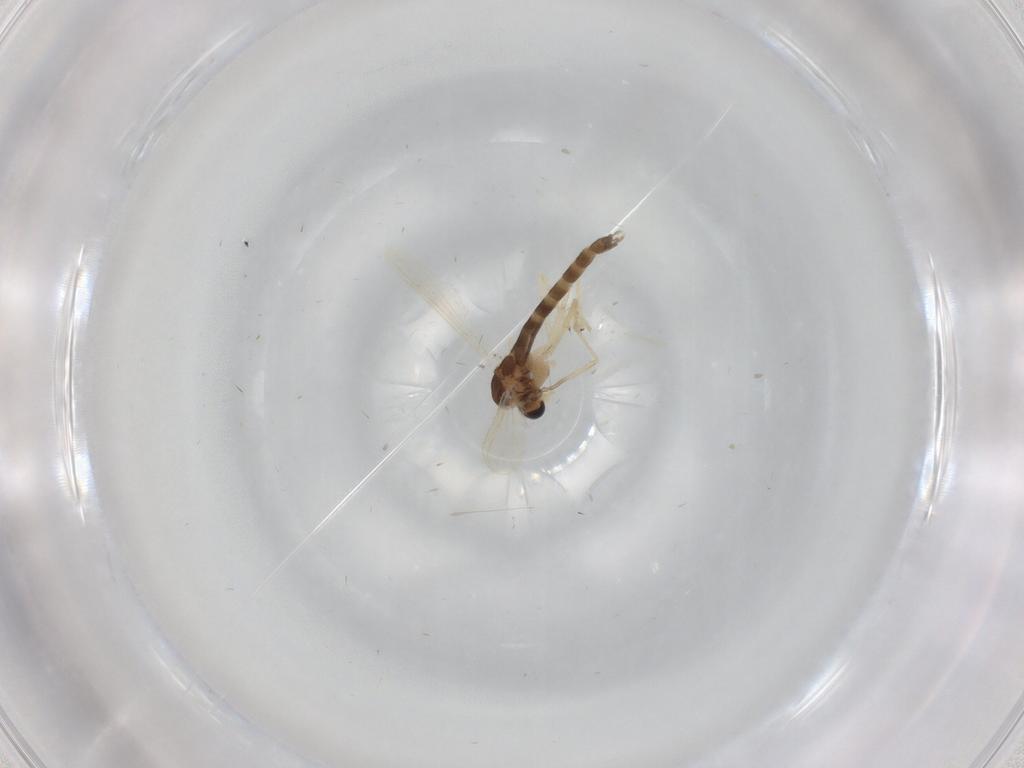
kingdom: Animalia
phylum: Arthropoda
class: Insecta
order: Diptera
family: Chironomidae
